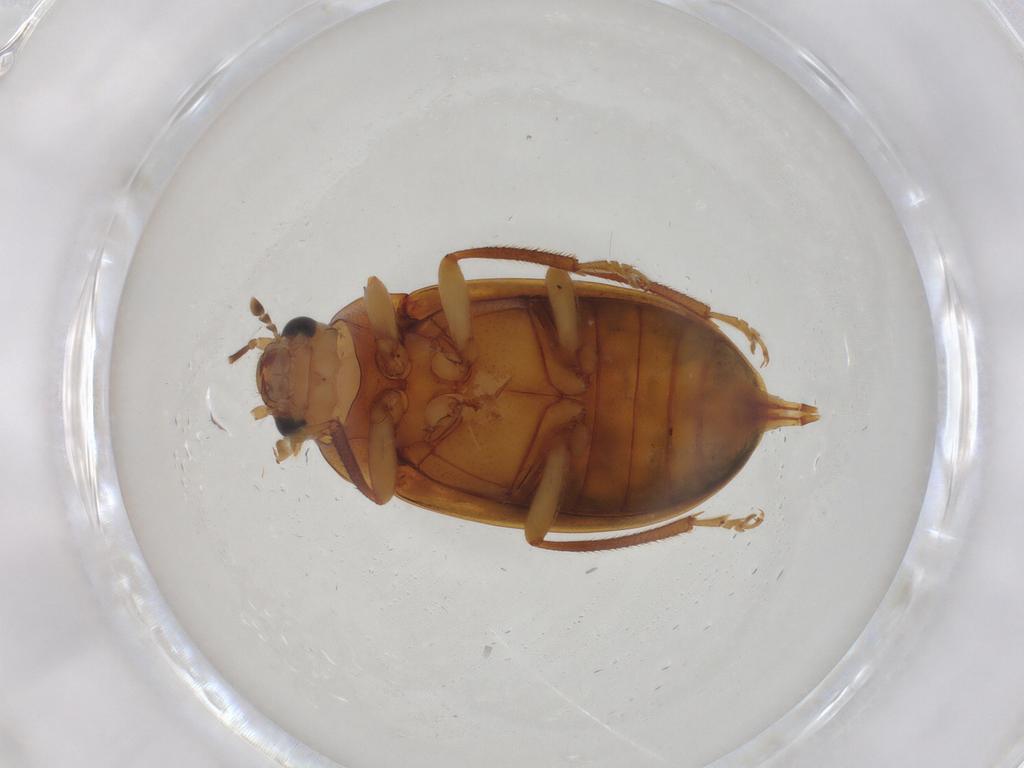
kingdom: Animalia
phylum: Arthropoda
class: Insecta
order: Coleoptera
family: Ptilodactylidae
